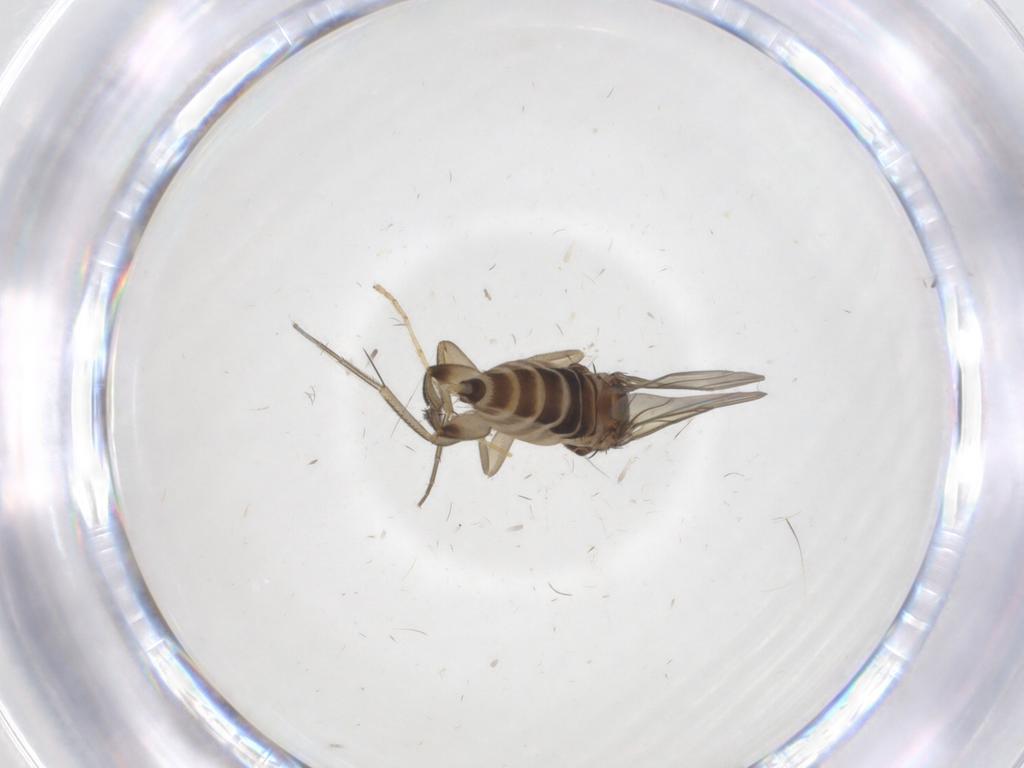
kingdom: Animalia
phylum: Arthropoda
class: Insecta
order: Diptera
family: Limoniidae
